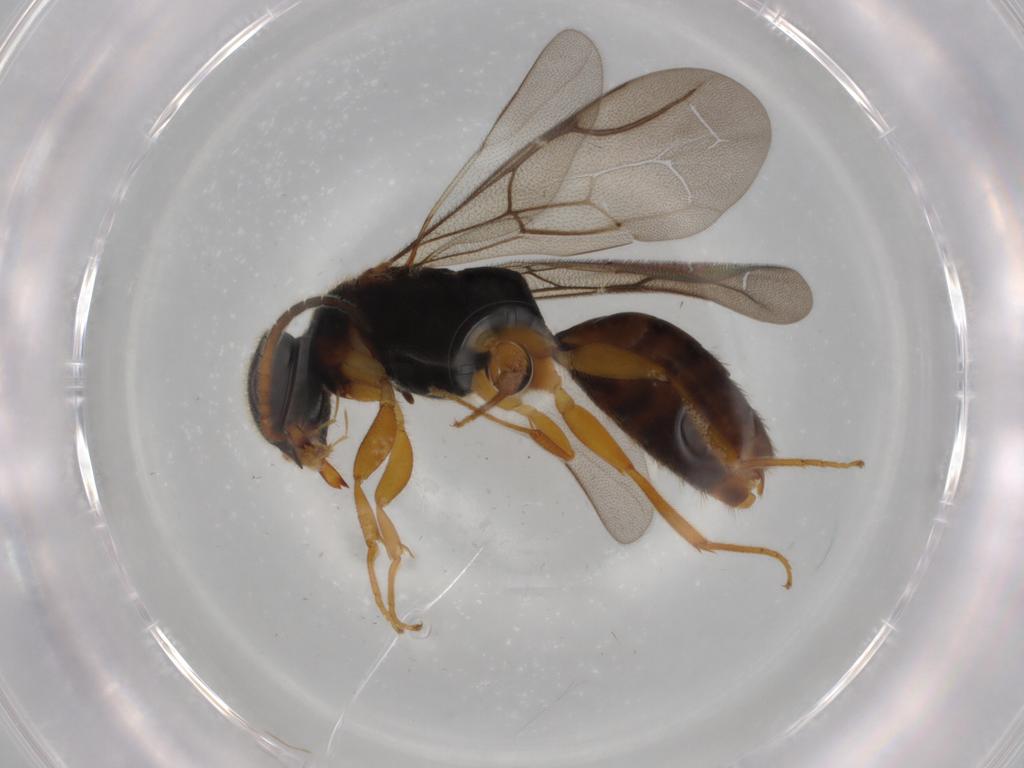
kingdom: Animalia
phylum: Arthropoda
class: Insecta
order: Hymenoptera
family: Bethylidae
